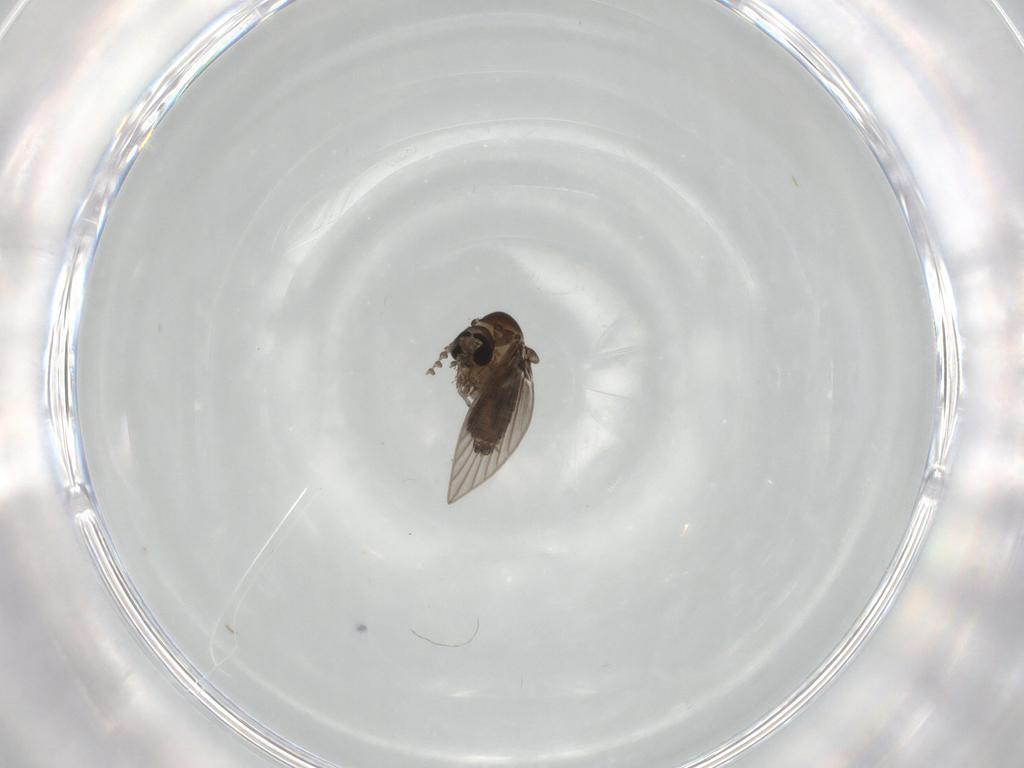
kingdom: Animalia
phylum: Arthropoda
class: Insecta
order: Diptera
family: Psychodidae
